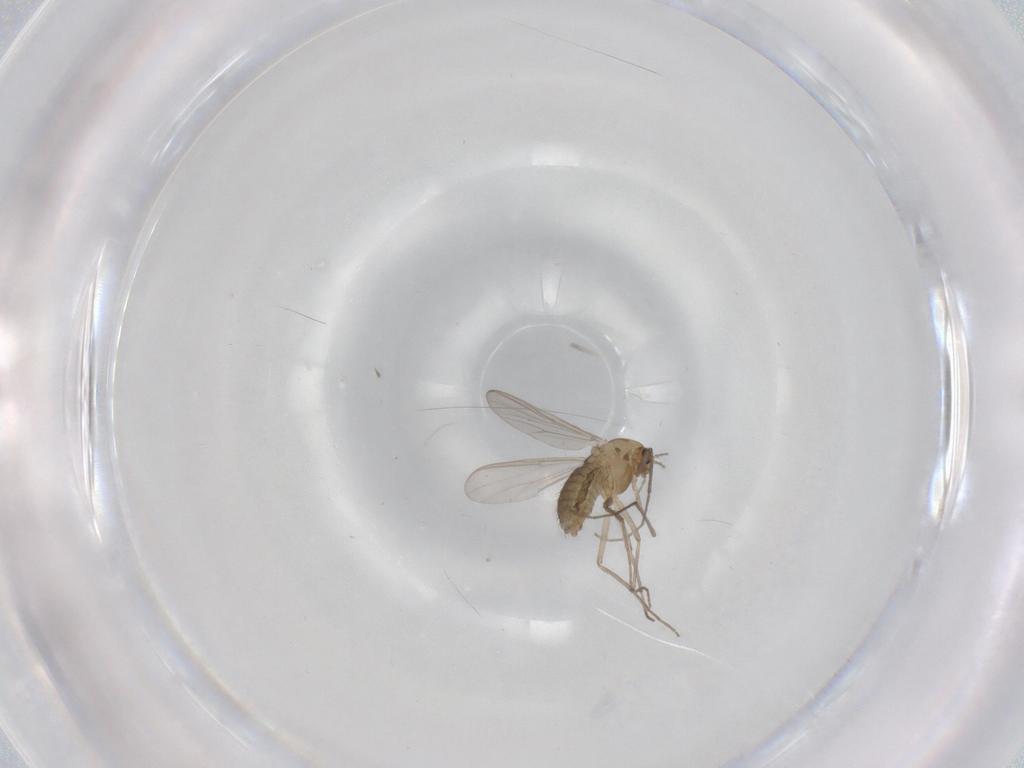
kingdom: Animalia
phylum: Arthropoda
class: Insecta
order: Diptera
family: Chironomidae
